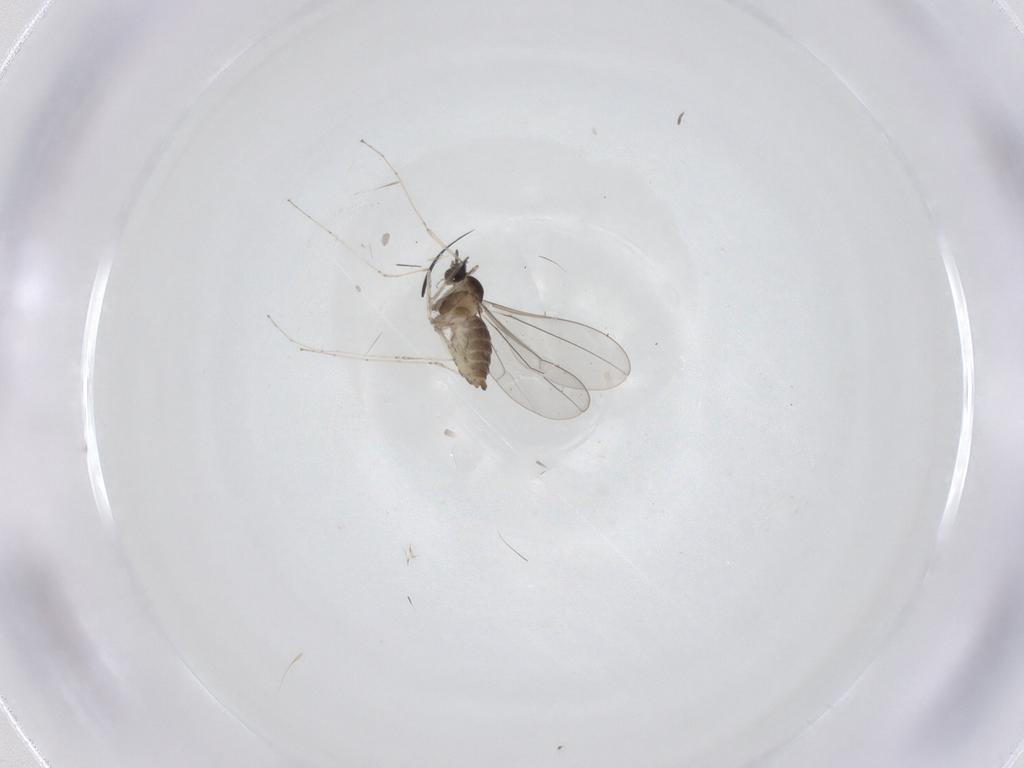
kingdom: Animalia
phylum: Arthropoda
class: Insecta
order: Diptera
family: Cecidomyiidae
